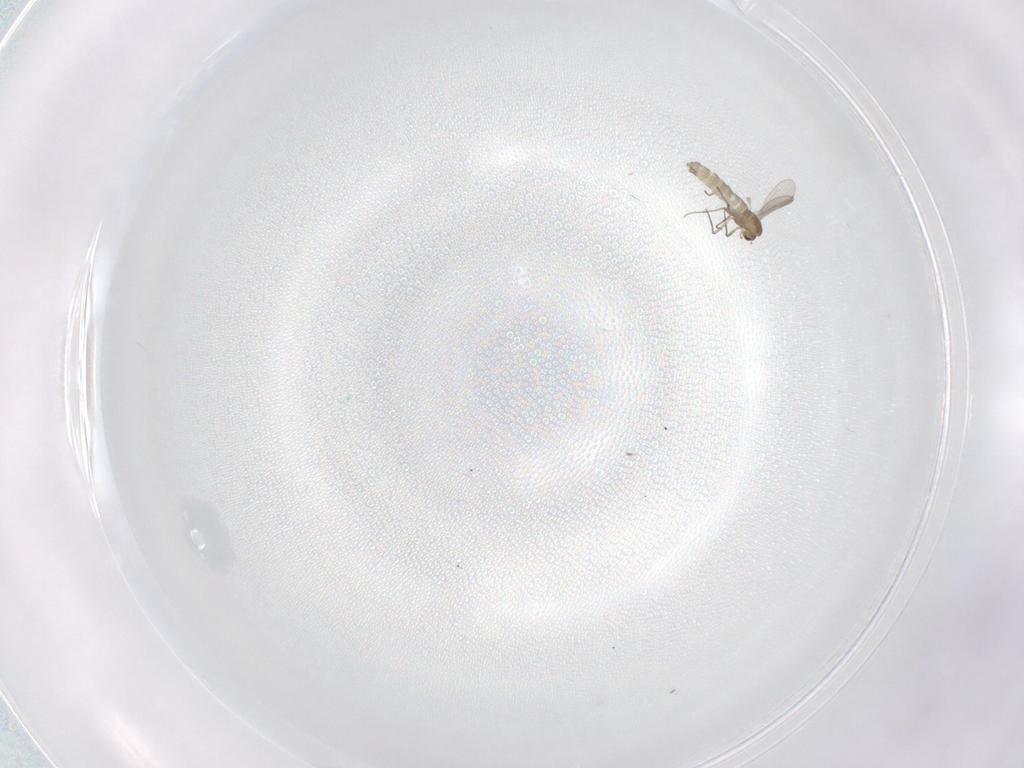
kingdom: Animalia
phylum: Arthropoda
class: Insecta
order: Diptera
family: Chironomidae
